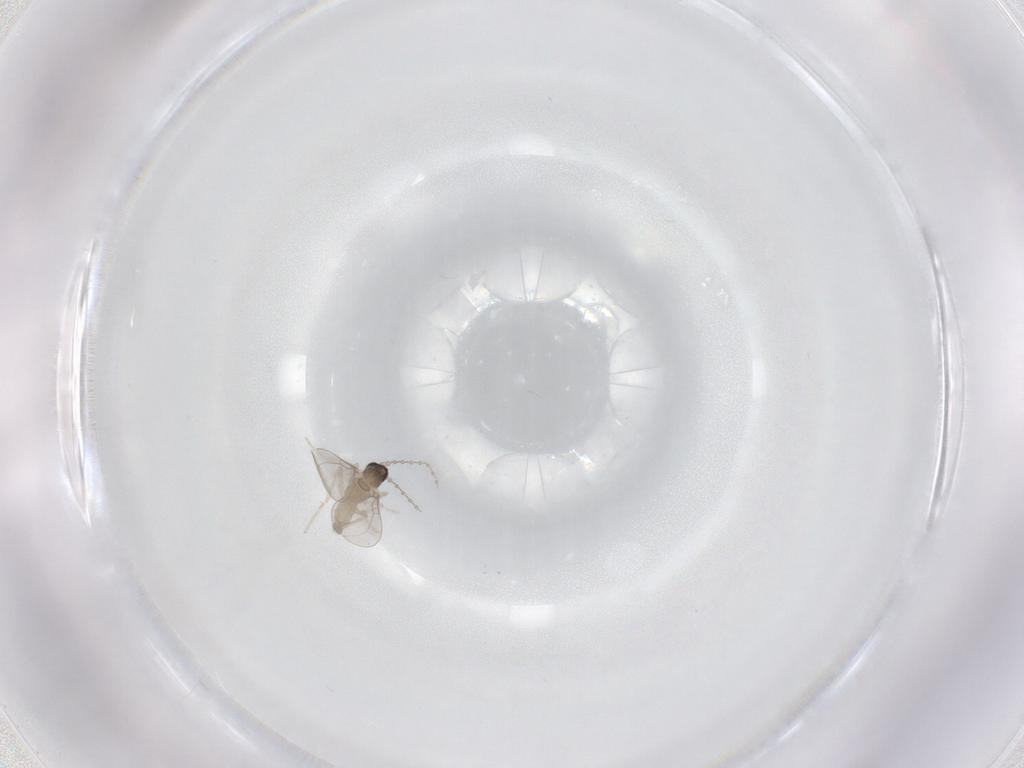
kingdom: Animalia
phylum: Arthropoda
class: Insecta
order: Diptera
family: Cecidomyiidae
